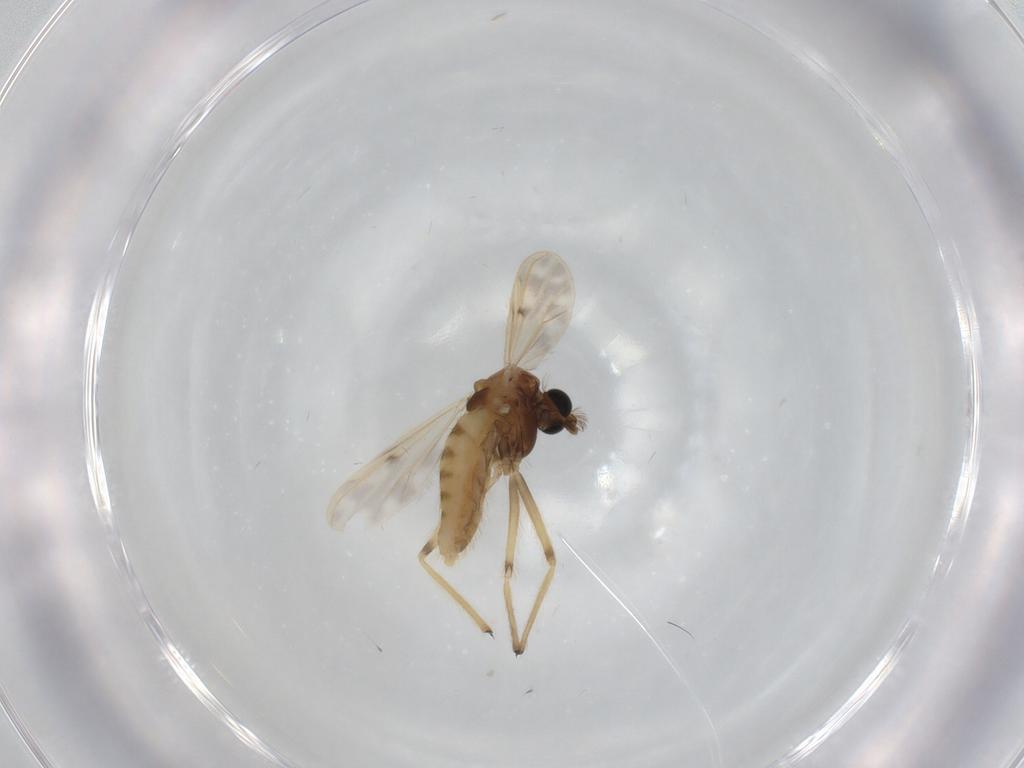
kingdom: Animalia
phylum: Arthropoda
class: Insecta
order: Diptera
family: Chironomidae
